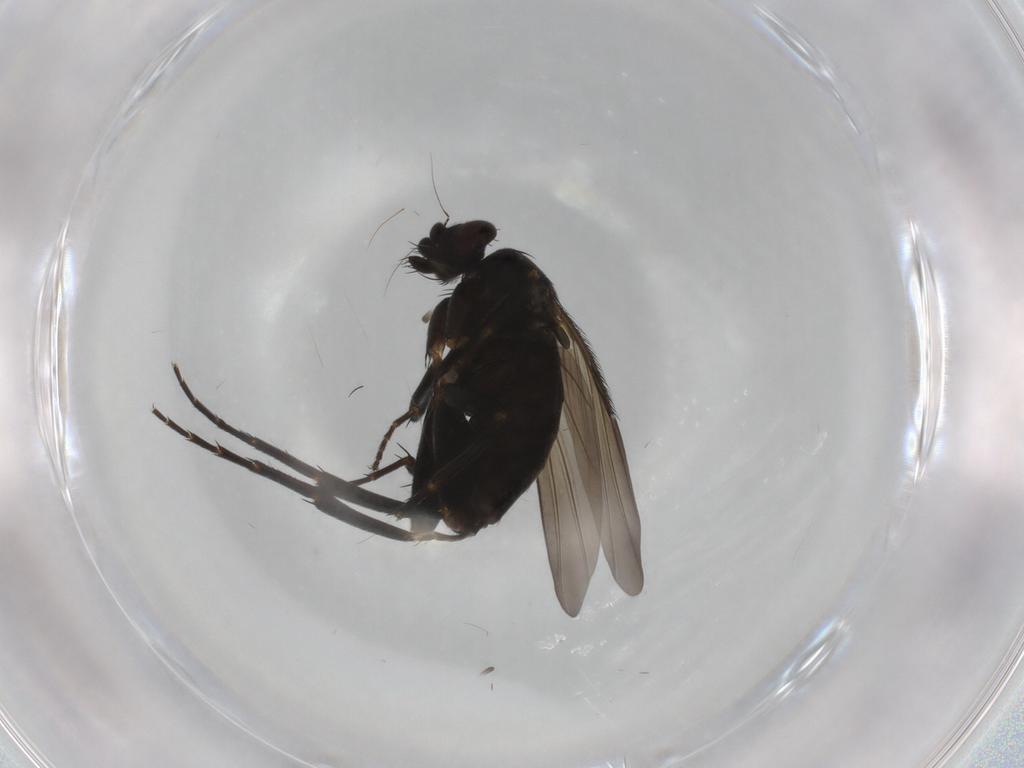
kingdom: Animalia
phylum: Arthropoda
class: Insecta
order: Diptera
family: Phoridae
